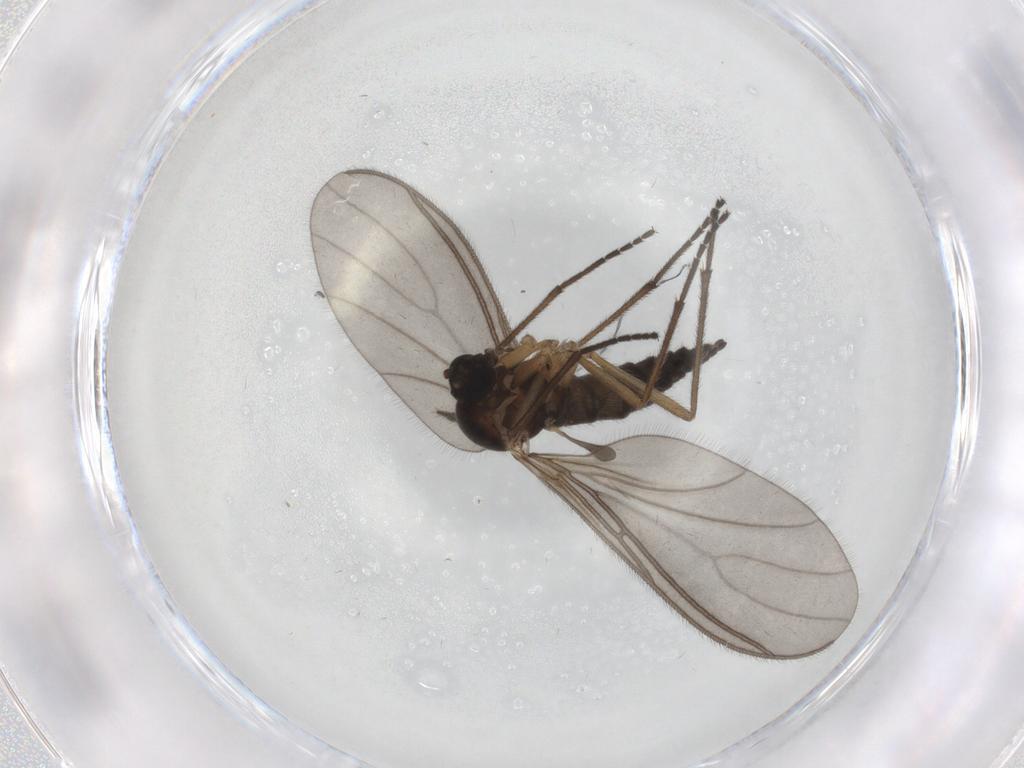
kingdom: Animalia
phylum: Arthropoda
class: Insecta
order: Diptera
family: Sciaridae
